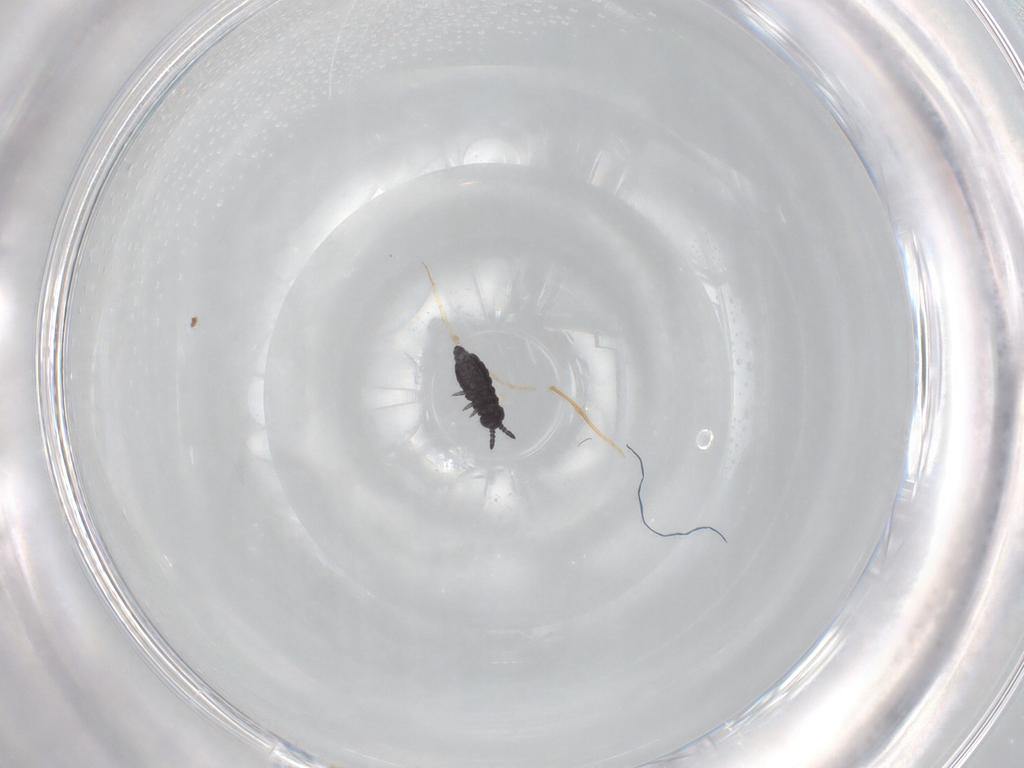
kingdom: Animalia
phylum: Arthropoda
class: Collembola
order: Poduromorpha
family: Hypogastruridae
